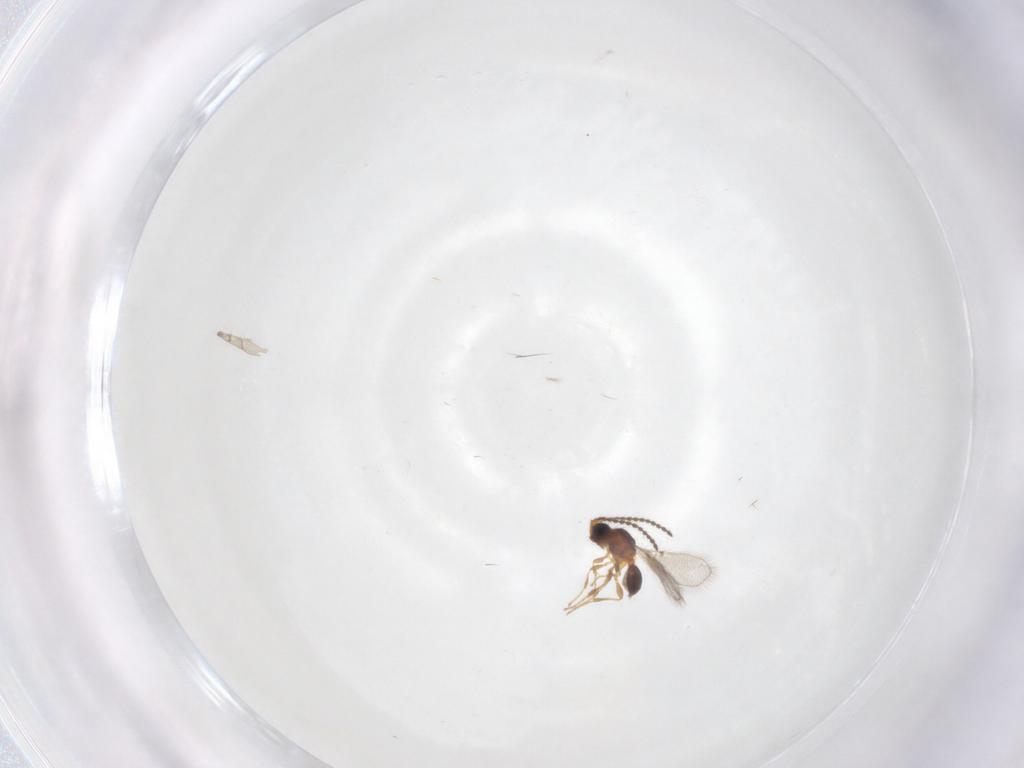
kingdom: Animalia
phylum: Arthropoda
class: Insecta
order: Hymenoptera
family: Diapriidae
